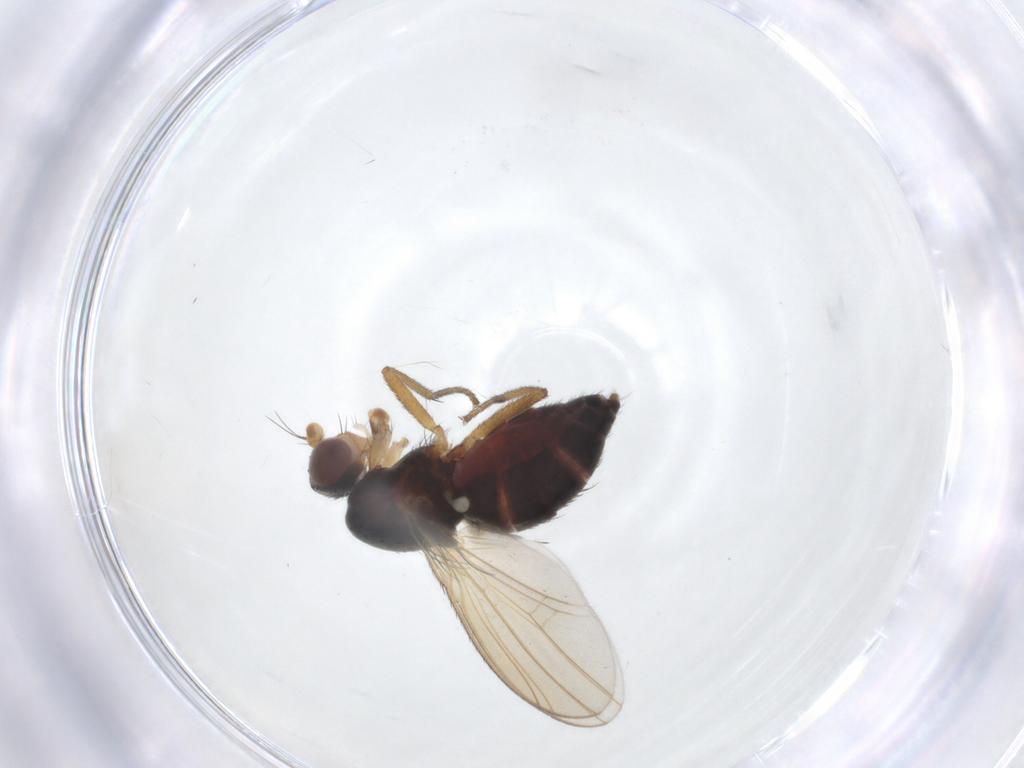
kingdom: Animalia
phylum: Arthropoda
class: Insecta
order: Diptera
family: Heleomyzidae
